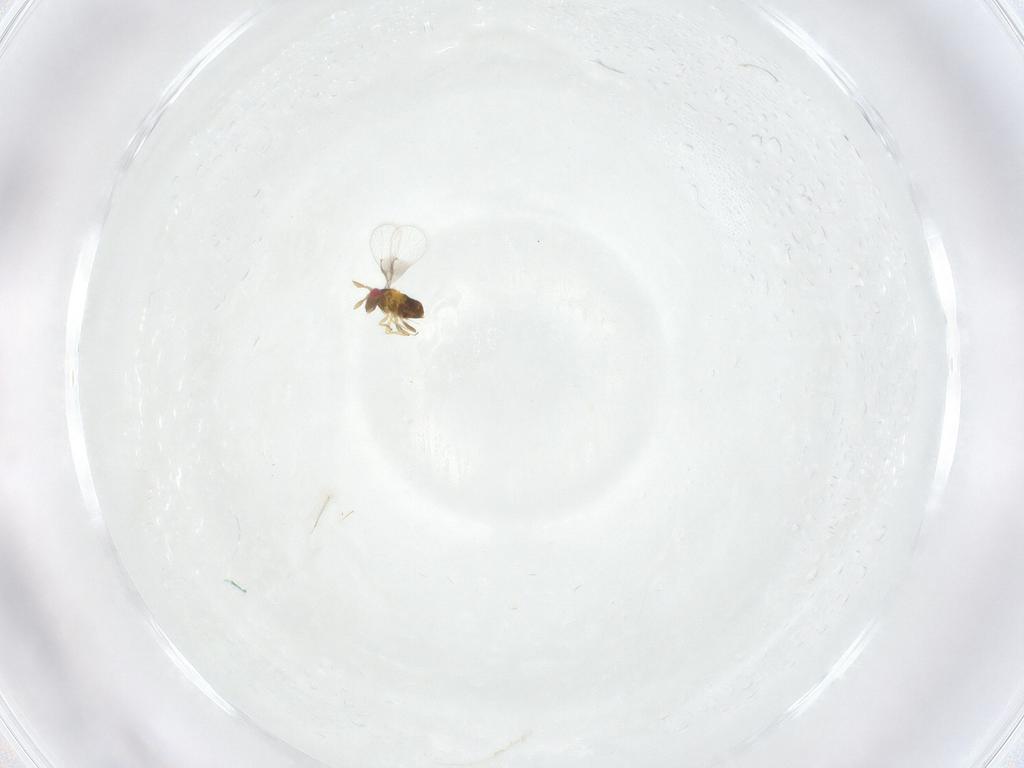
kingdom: Animalia
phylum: Arthropoda
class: Insecta
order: Hymenoptera
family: Trichogrammatidae
